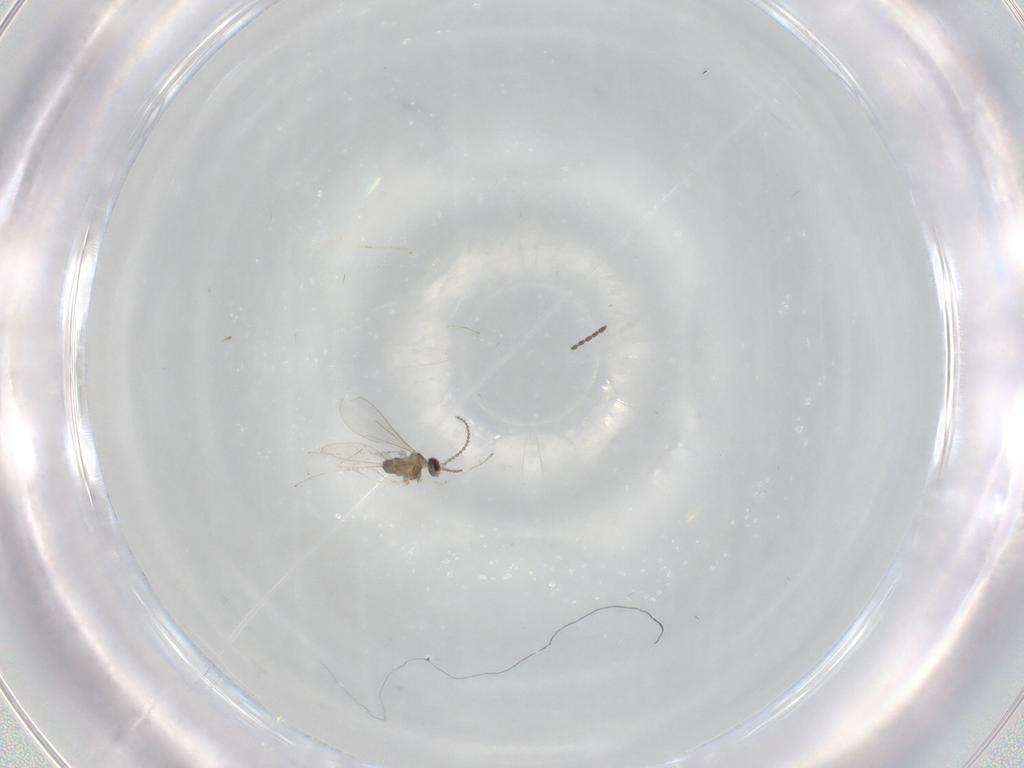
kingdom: Animalia
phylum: Arthropoda
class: Insecta
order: Diptera
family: Cecidomyiidae
